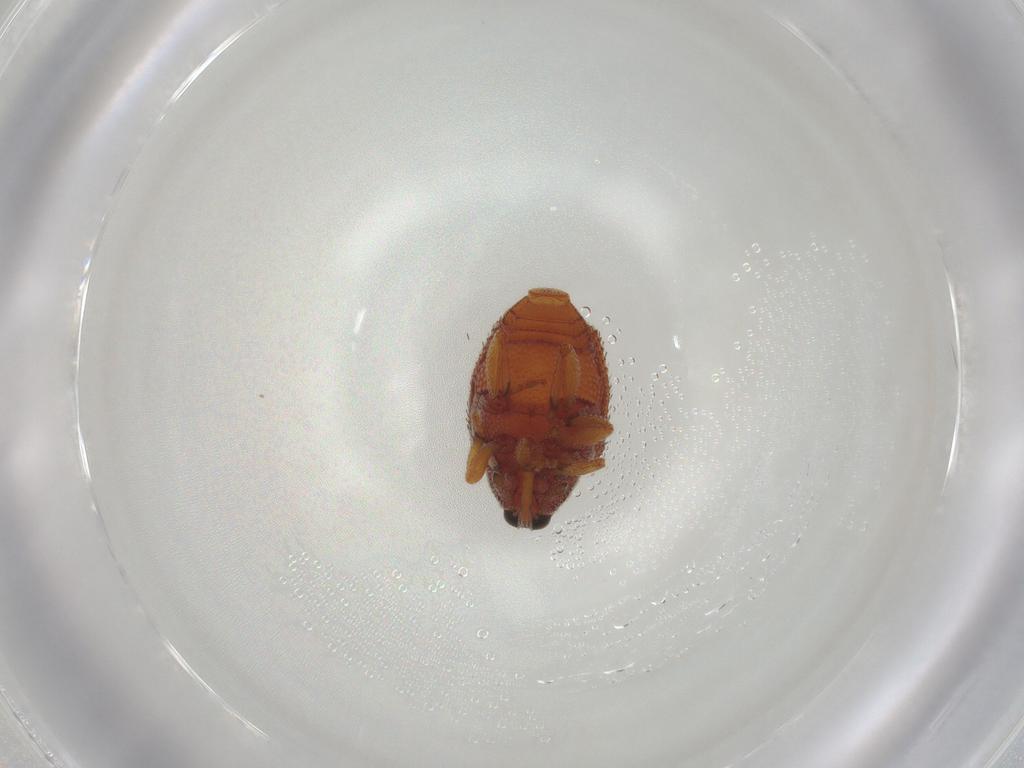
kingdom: Animalia
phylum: Arthropoda
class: Insecta
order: Coleoptera
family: Curculionidae
